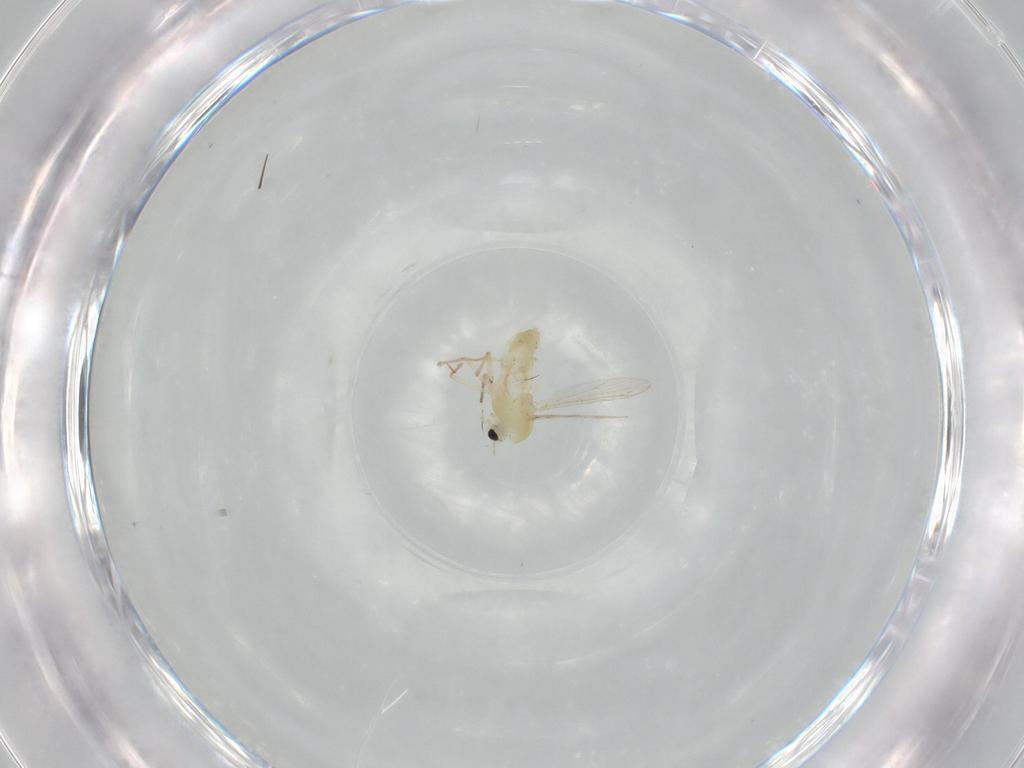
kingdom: Animalia
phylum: Arthropoda
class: Insecta
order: Diptera
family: Chironomidae
